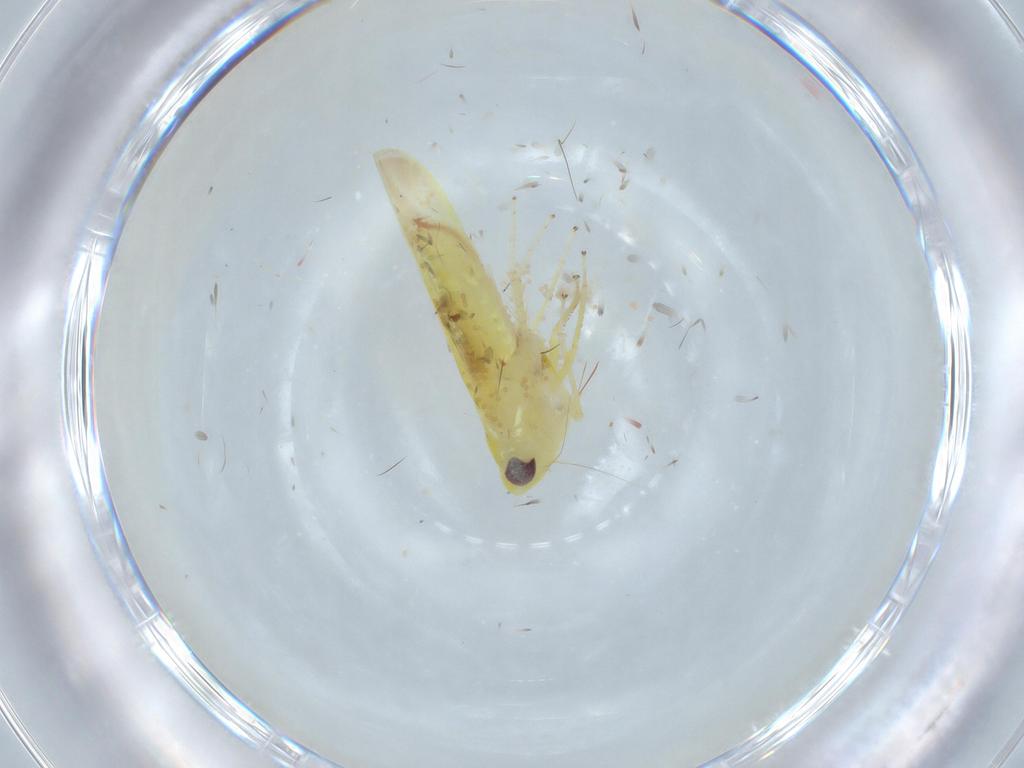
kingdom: Animalia
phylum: Arthropoda
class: Insecta
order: Hemiptera
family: Cicadellidae
